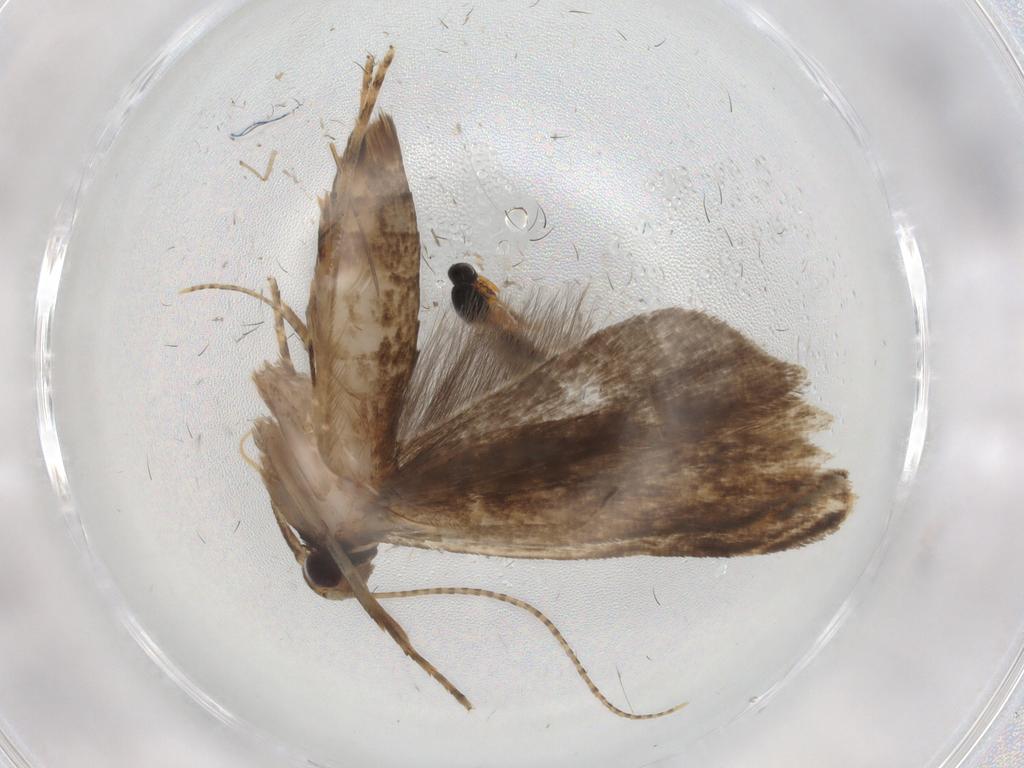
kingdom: Animalia
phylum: Arthropoda
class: Insecta
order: Lepidoptera
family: Gelechiidae
